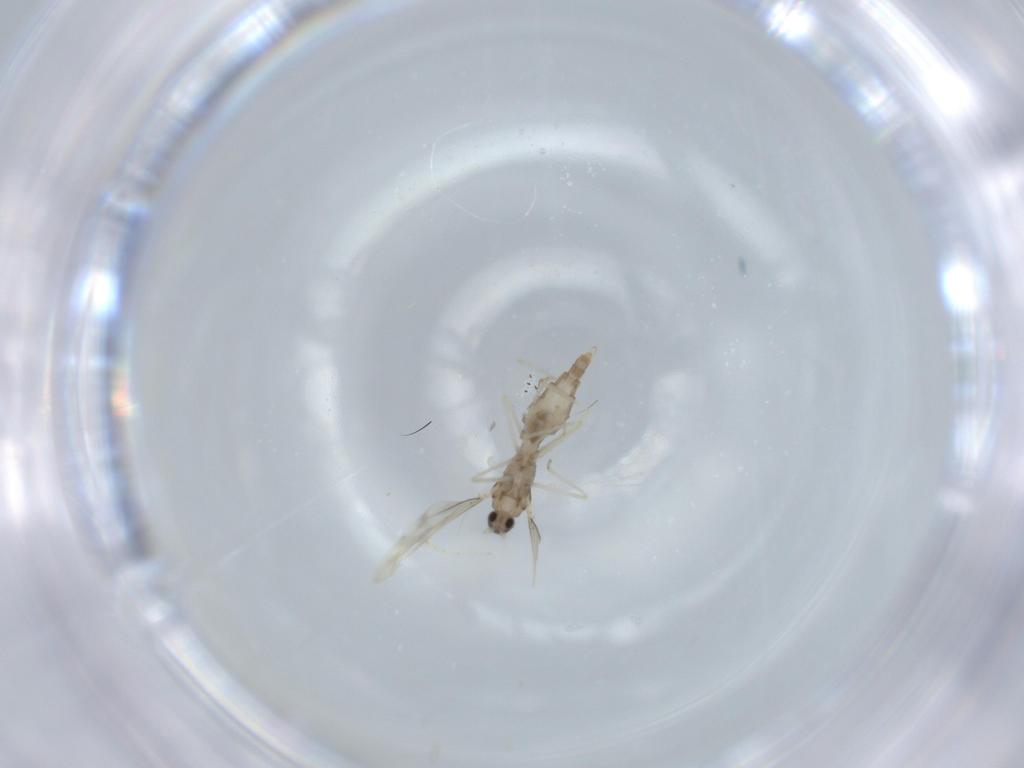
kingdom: Animalia
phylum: Arthropoda
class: Insecta
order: Diptera
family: Cecidomyiidae
